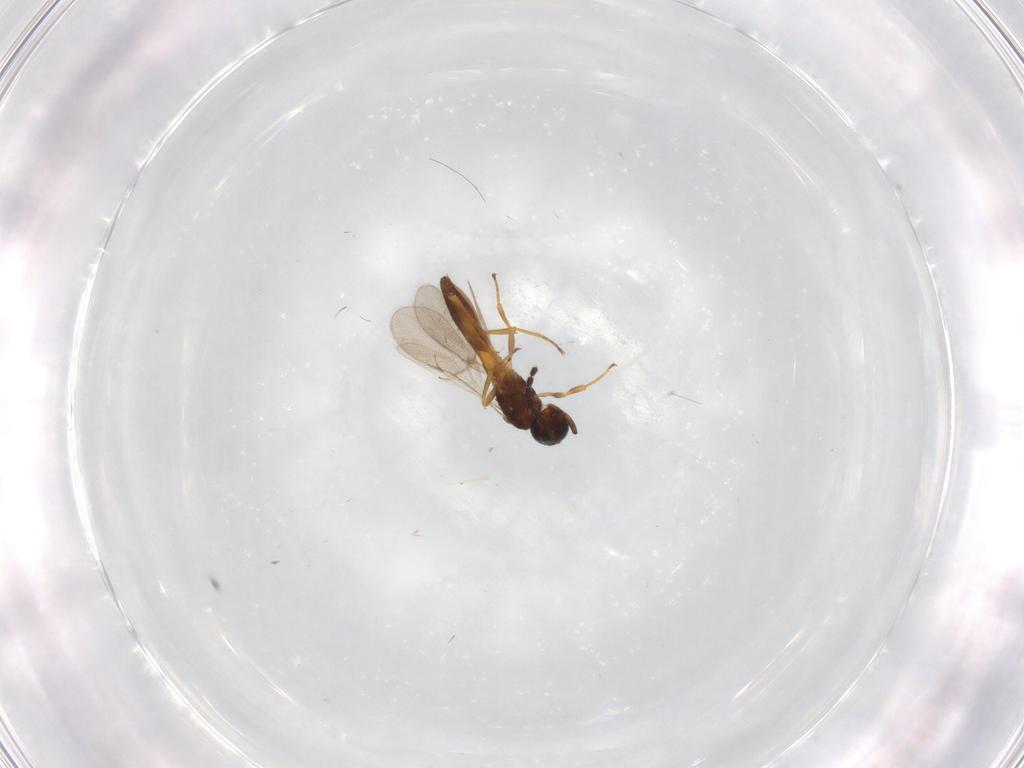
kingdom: Animalia
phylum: Arthropoda
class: Insecta
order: Hymenoptera
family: Scelionidae
